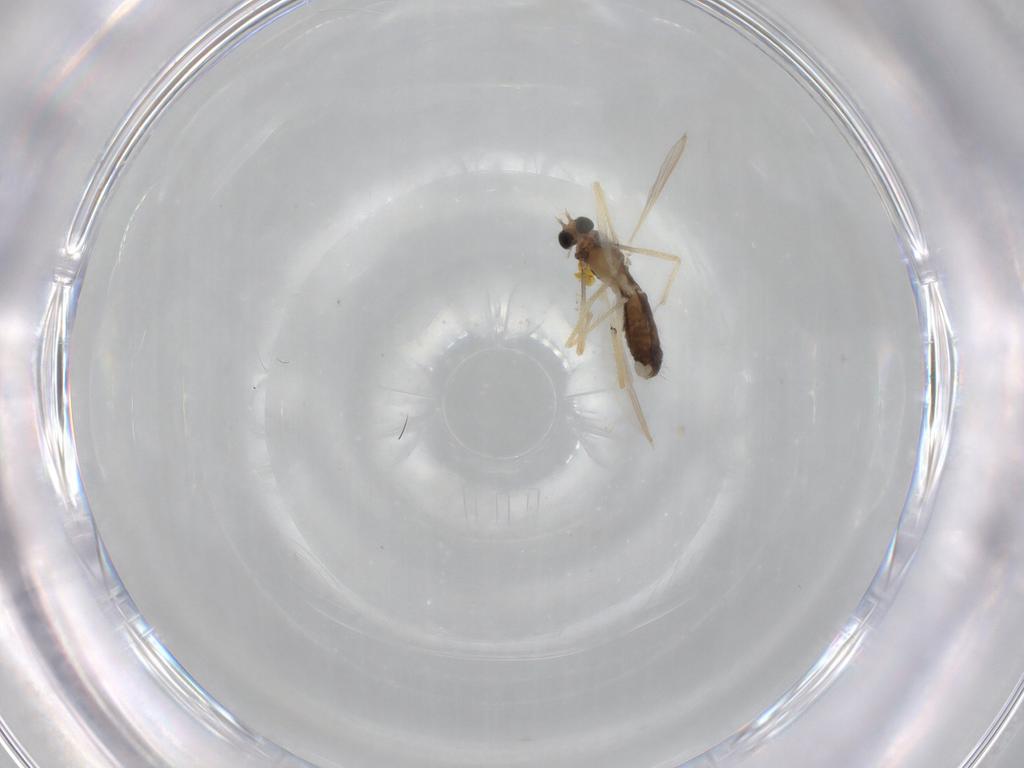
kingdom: Animalia
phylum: Arthropoda
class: Insecta
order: Diptera
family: Chironomidae
